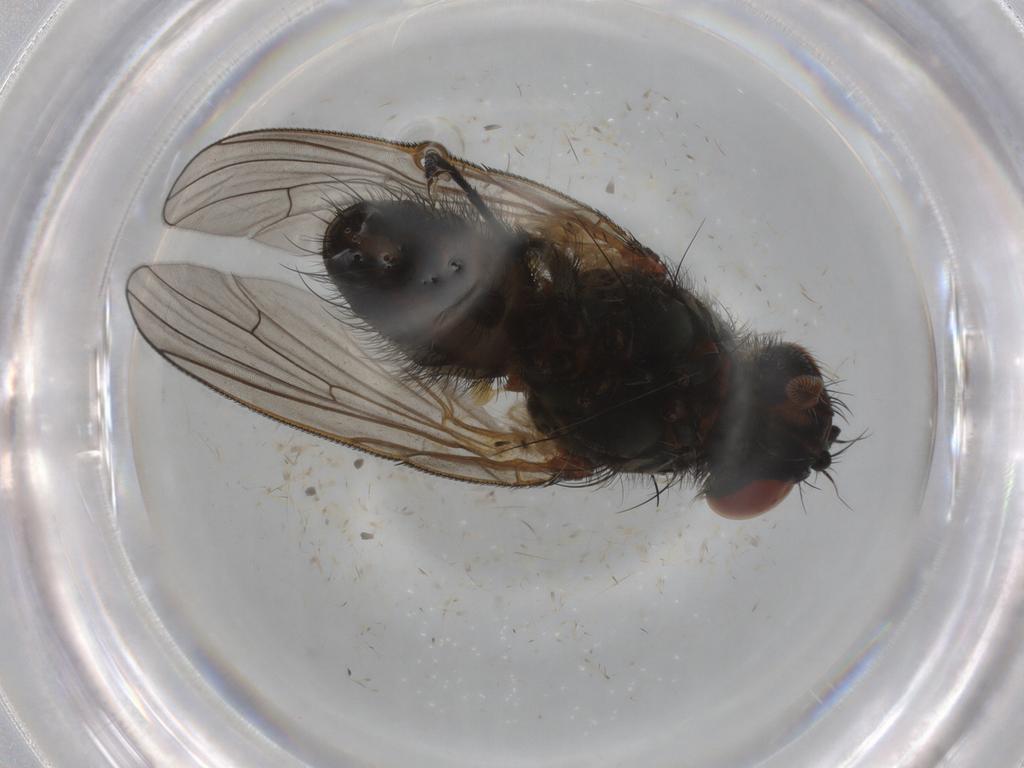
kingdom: Animalia
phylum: Arthropoda
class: Insecta
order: Diptera
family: Anthomyiidae
